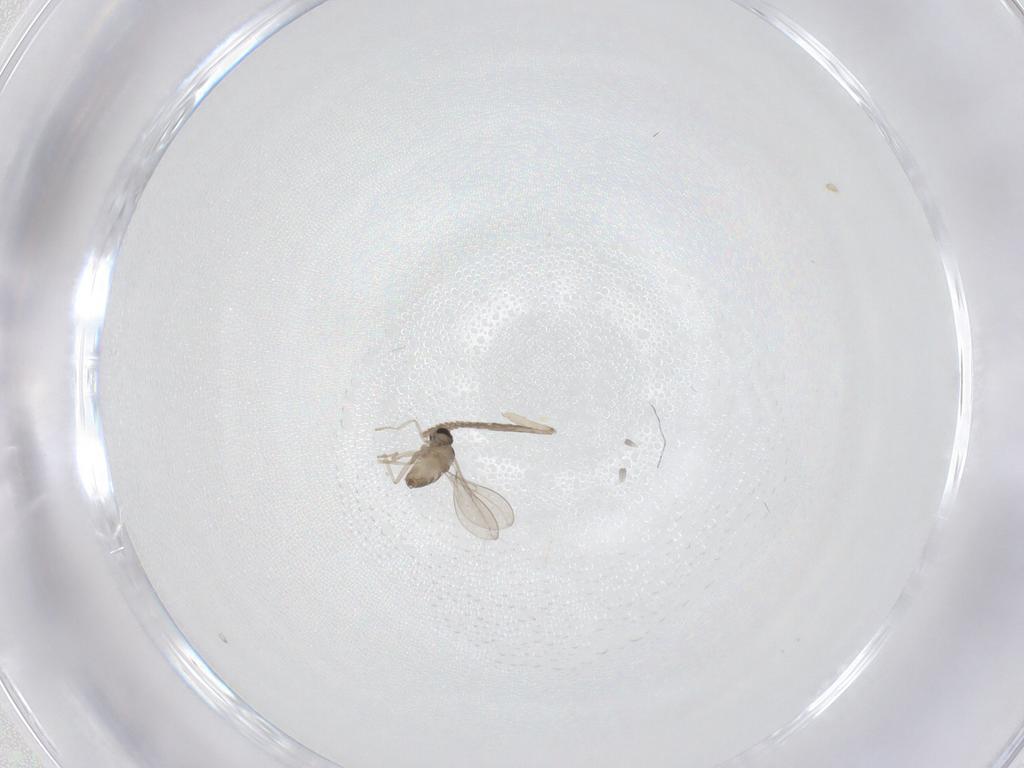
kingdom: Animalia
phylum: Arthropoda
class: Insecta
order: Diptera
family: Cecidomyiidae
